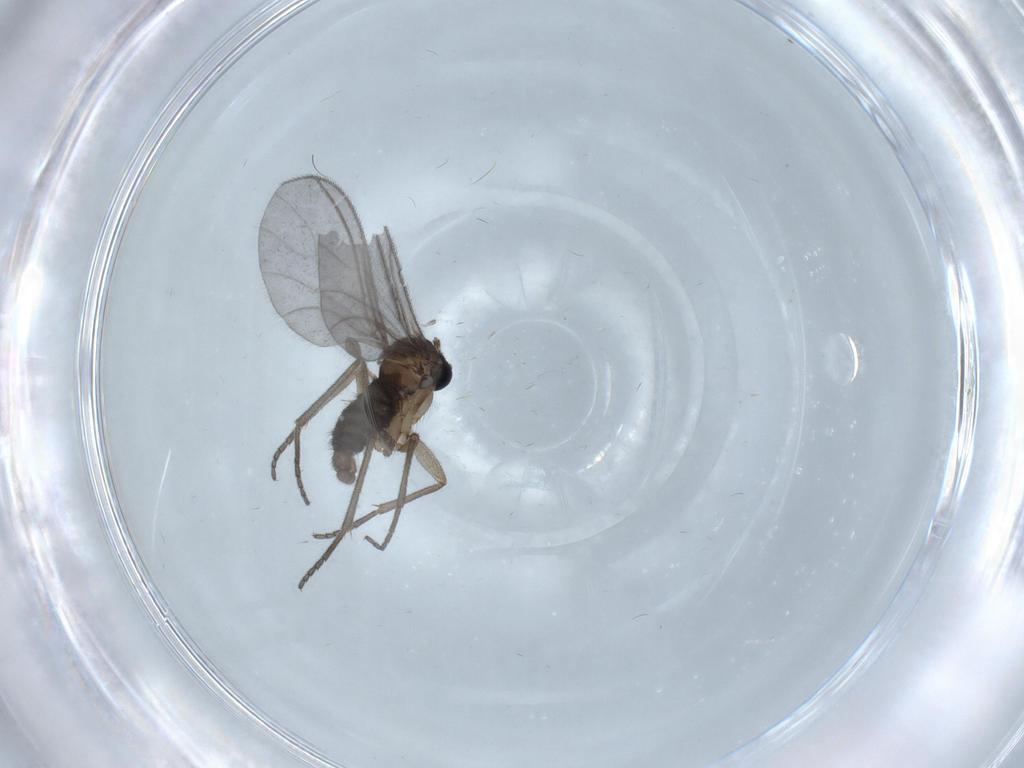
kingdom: Animalia
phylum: Arthropoda
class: Insecta
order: Diptera
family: Sciaridae
